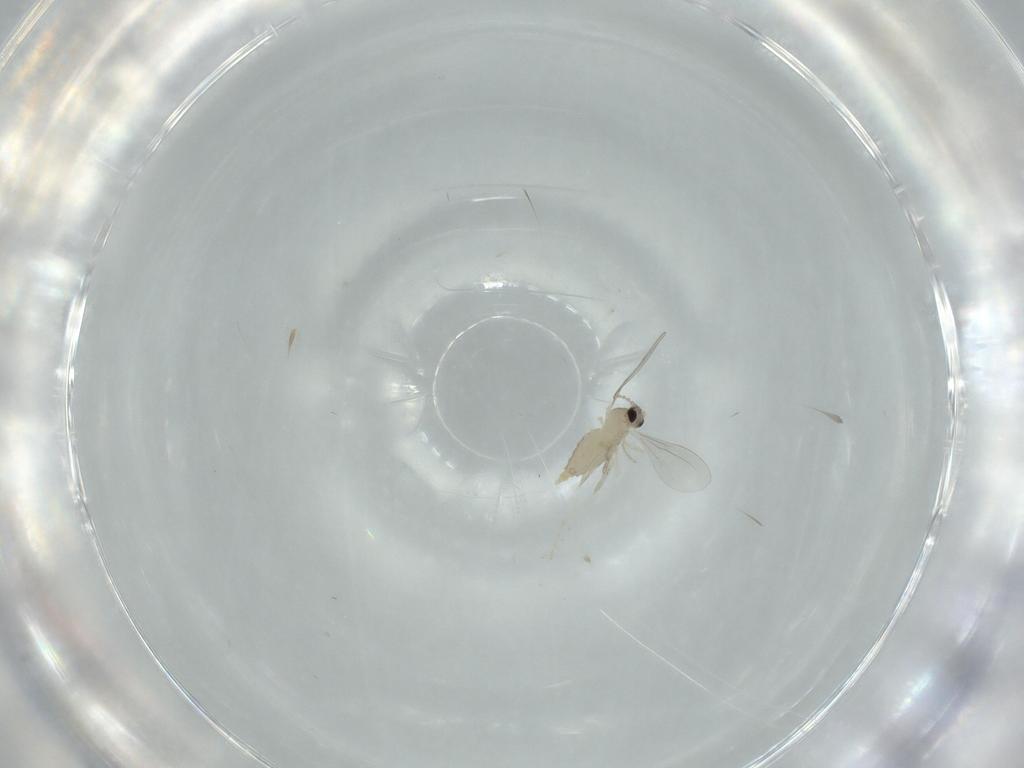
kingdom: Animalia
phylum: Arthropoda
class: Insecta
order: Diptera
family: Cecidomyiidae
